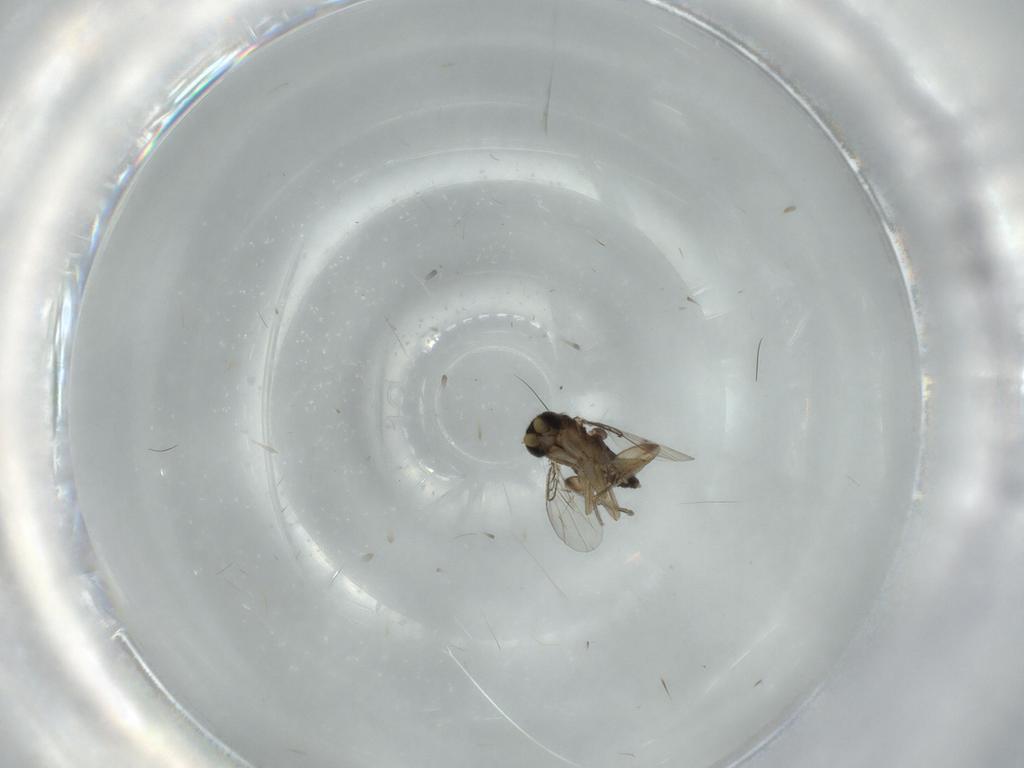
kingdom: Animalia
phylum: Arthropoda
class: Insecta
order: Diptera
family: Phoridae
